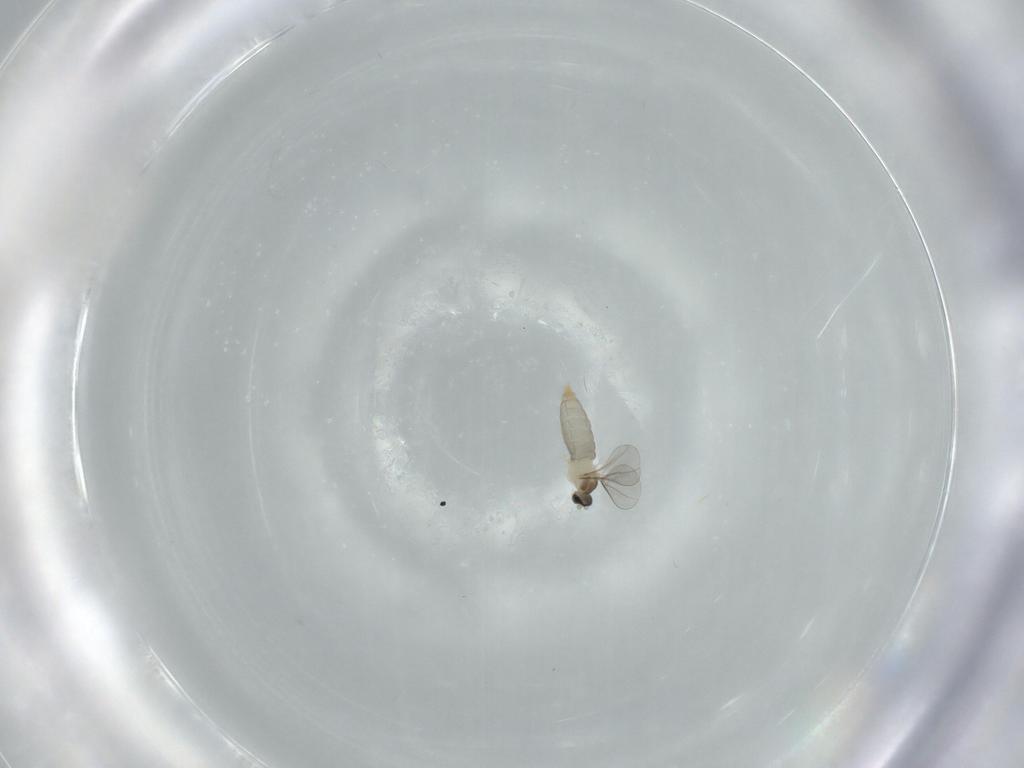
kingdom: Animalia
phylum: Arthropoda
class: Insecta
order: Diptera
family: Cecidomyiidae
